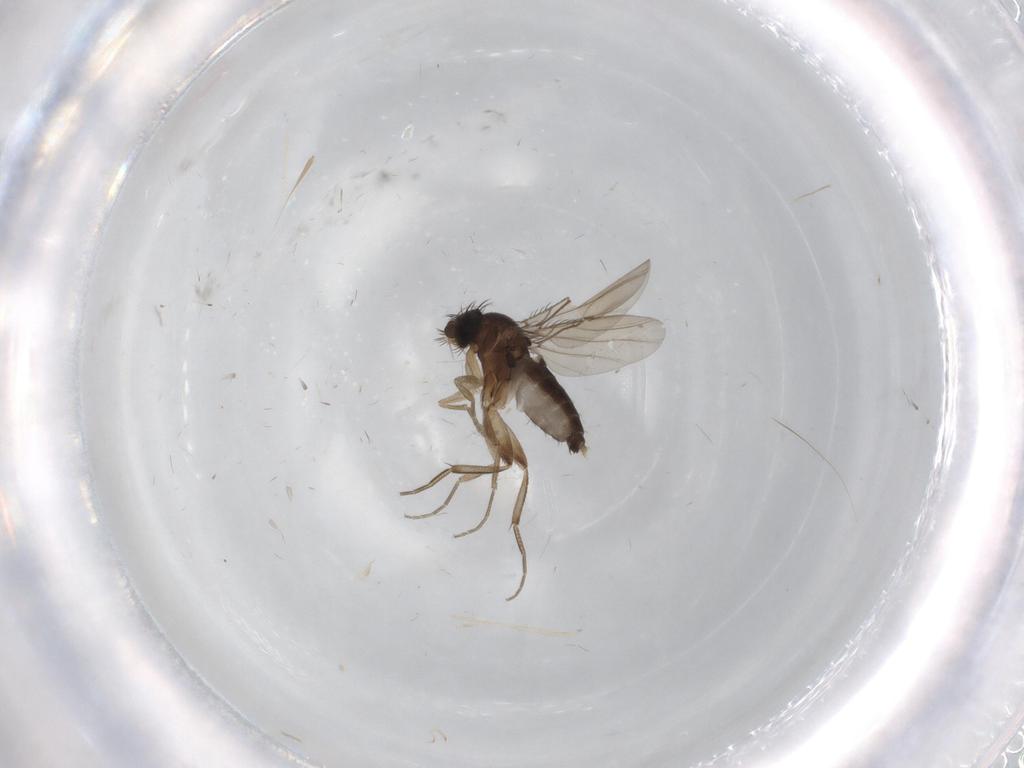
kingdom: Animalia
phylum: Arthropoda
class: Insecta
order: Diptera
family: Phoridae
